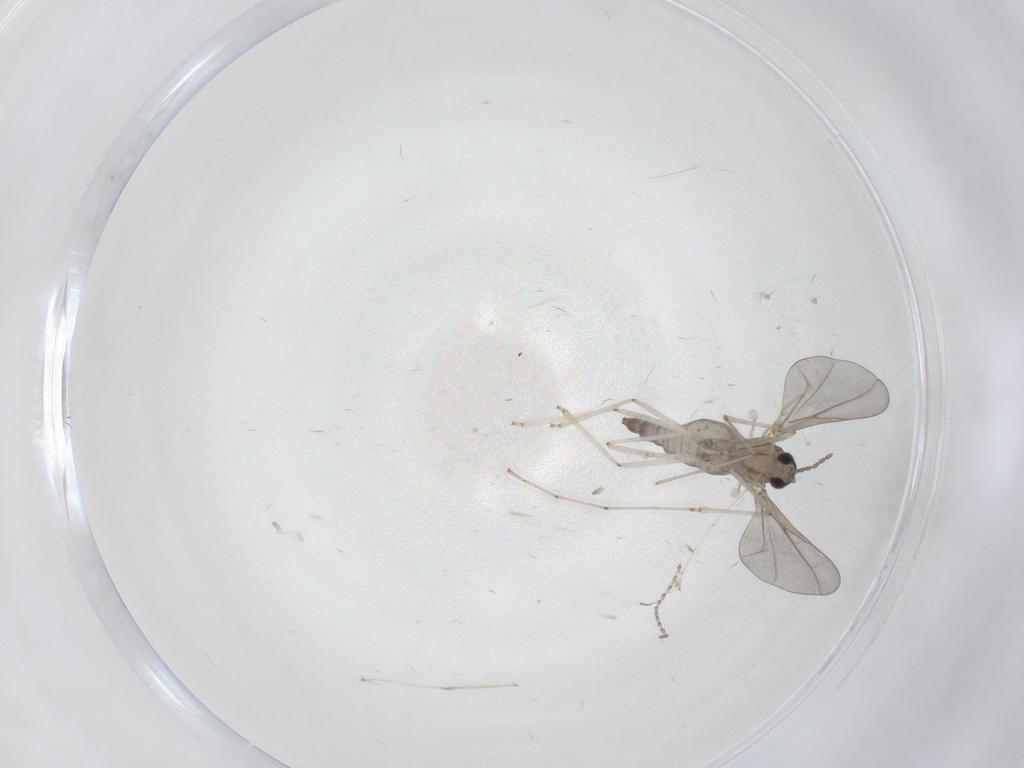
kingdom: Animalia
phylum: Arthropoda
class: Insecta
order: Diptera
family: Cecidomyiidae
